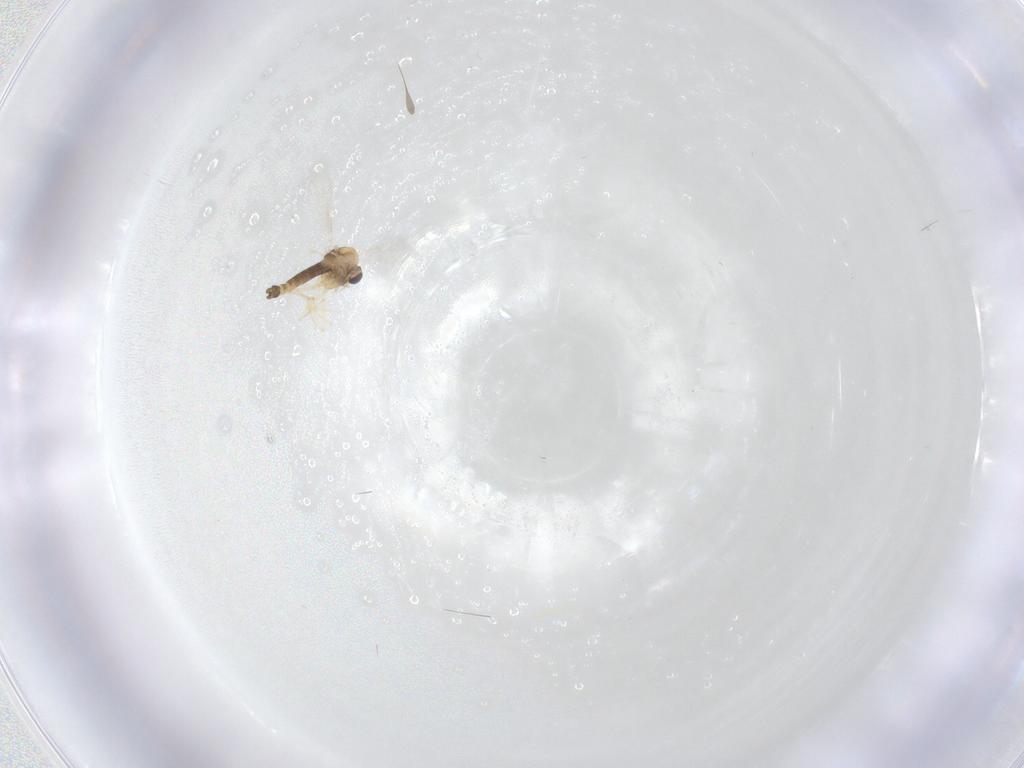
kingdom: Animalia
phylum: Arthropoda
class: Insecta
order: Diptera
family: Chironomidae
